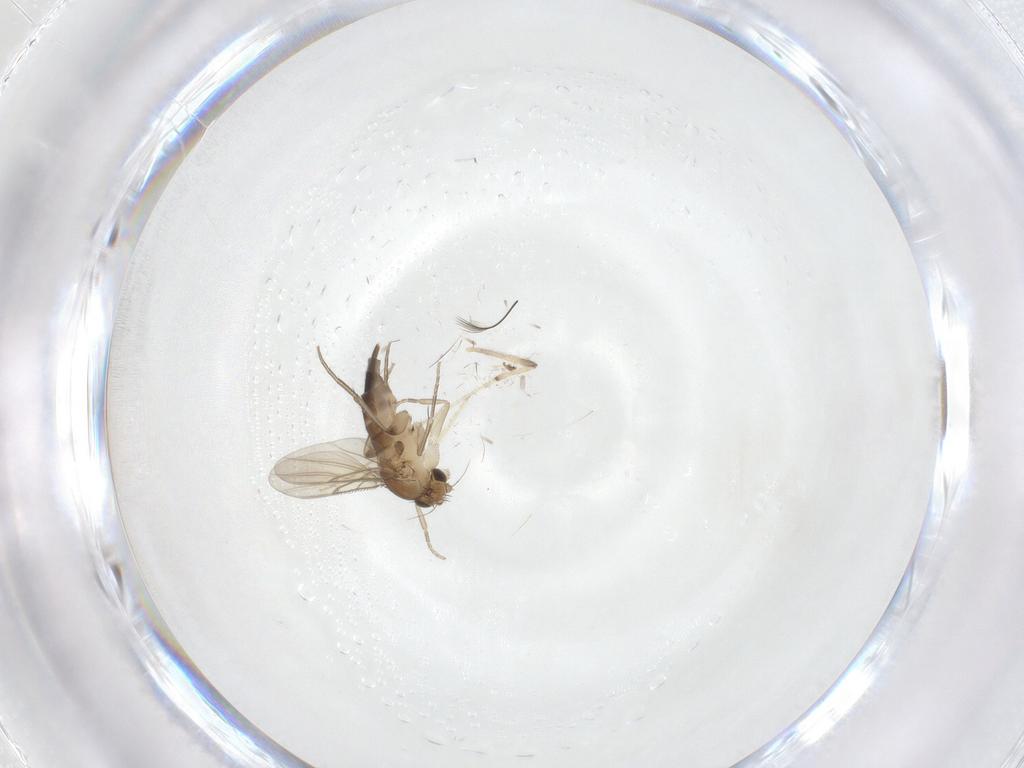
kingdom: Animalia
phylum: Arthropoda
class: Insecta
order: Diptera
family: Cecidomyiidae
